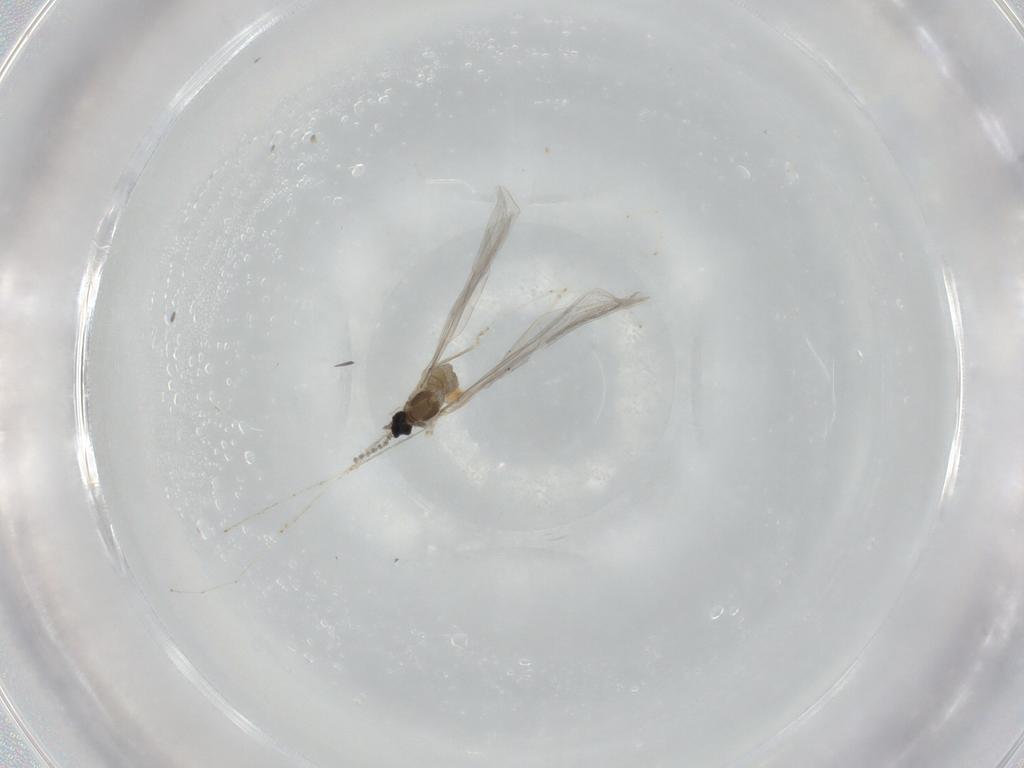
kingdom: Animalia
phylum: Arthropoda
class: Insecta
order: Diptera
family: Cecidomyiidae
